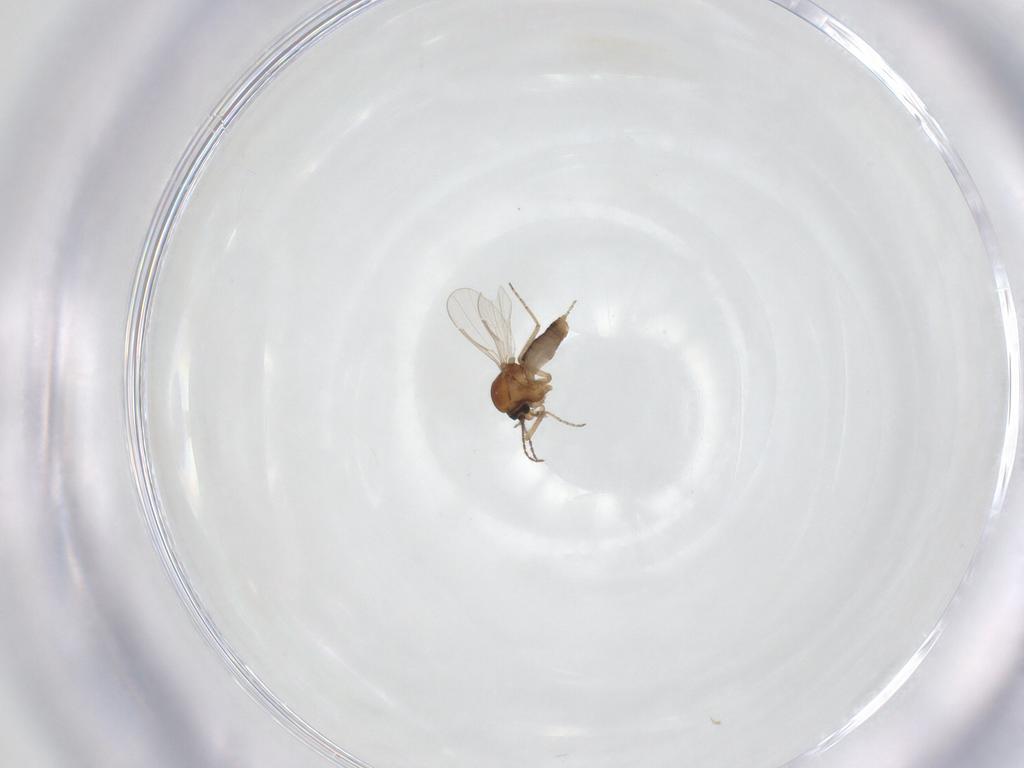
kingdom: Animalia
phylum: Arthropoda
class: Insecta
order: Diptera
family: Ceratopogonidae
